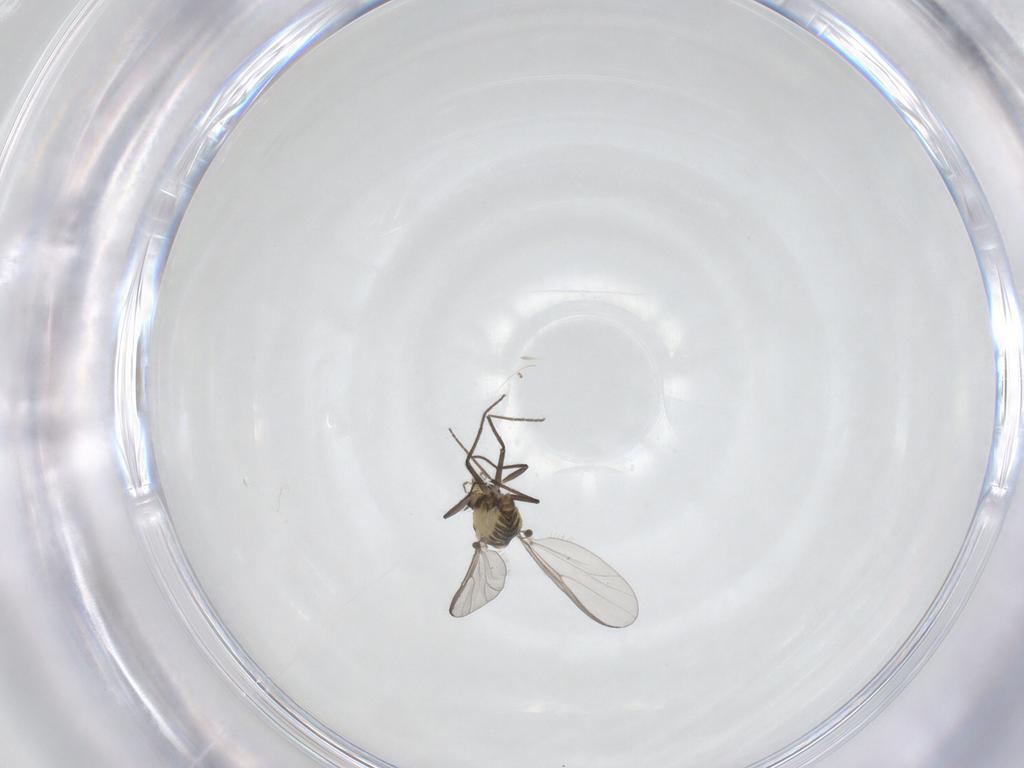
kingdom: Animalia
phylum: Arthropoda
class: Insecta
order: Diptera
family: Chironomidae
